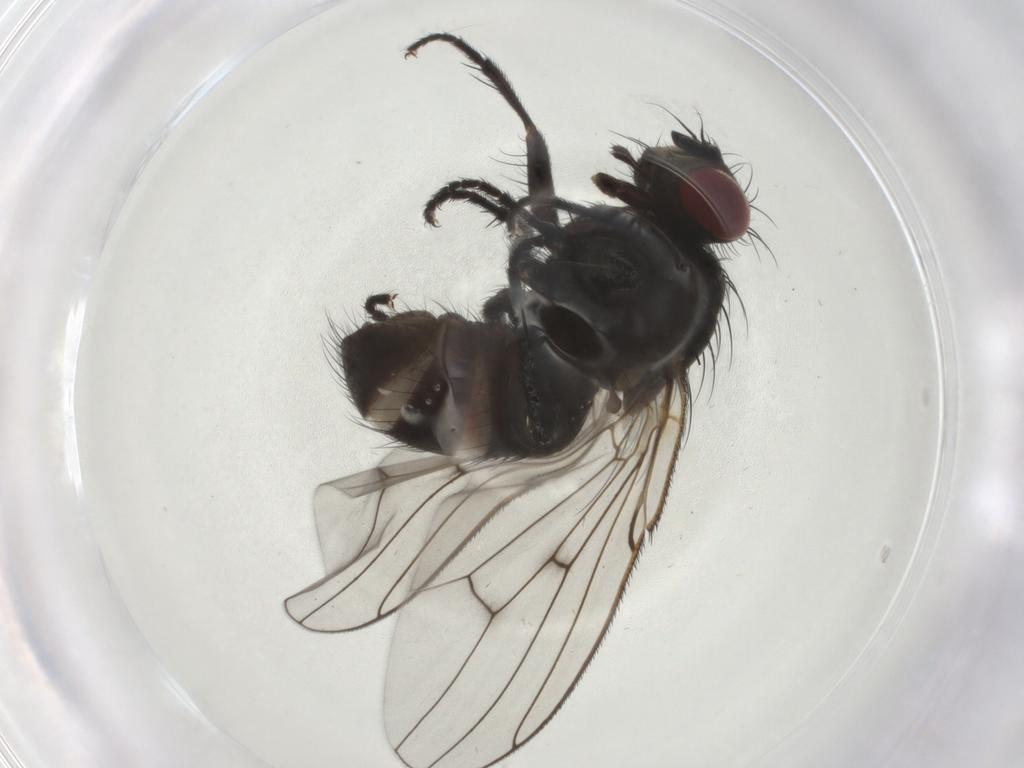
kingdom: Animalia
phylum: Arthropoda
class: Insecta
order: Diptera
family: Muscidae
